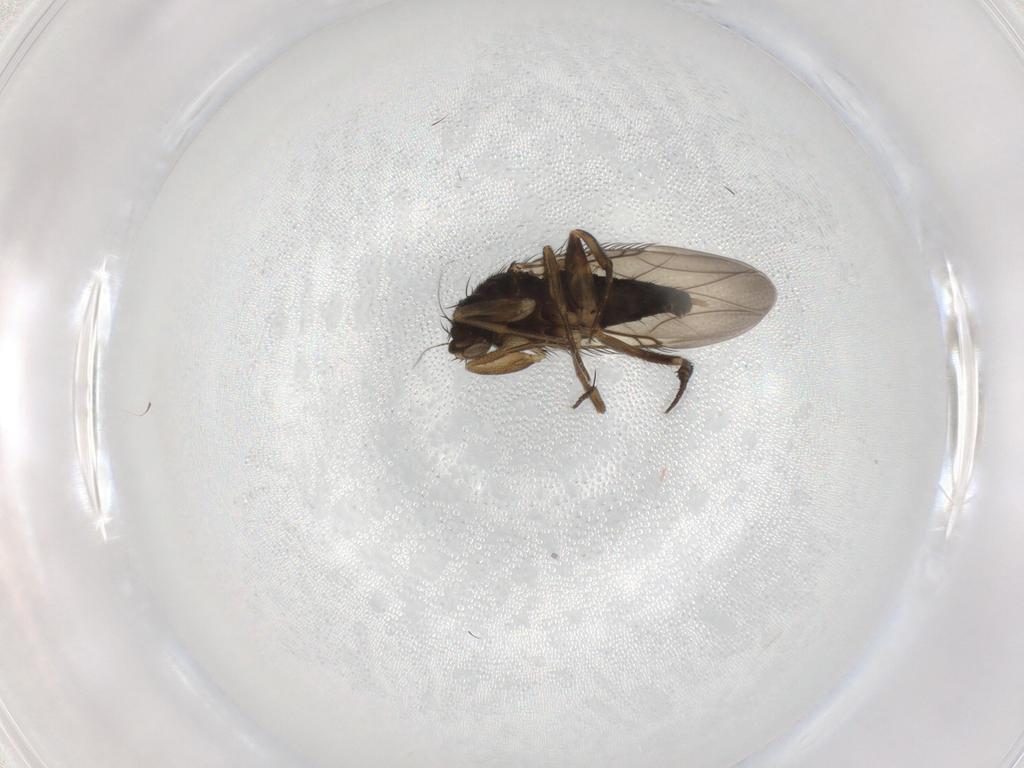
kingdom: Animalia
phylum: Arthropoda
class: Insecta
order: Diptera
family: Phoridae
